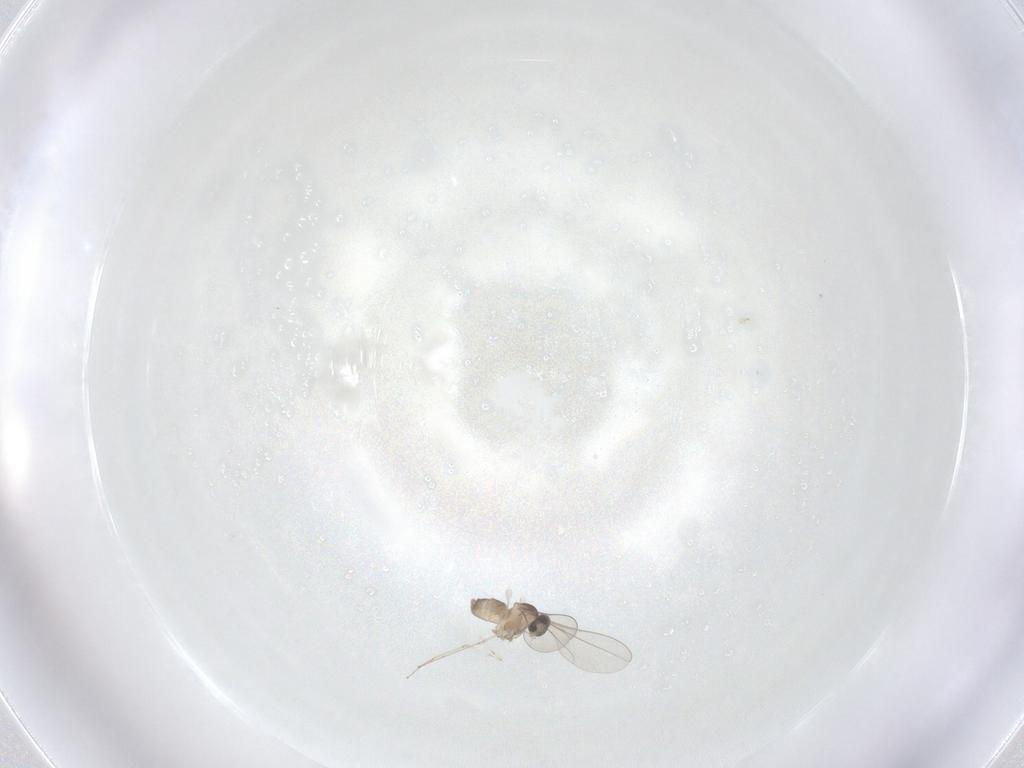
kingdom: Animalia
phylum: Arthropoda
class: Insecta
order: Diptera
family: Cecidomyiidae
